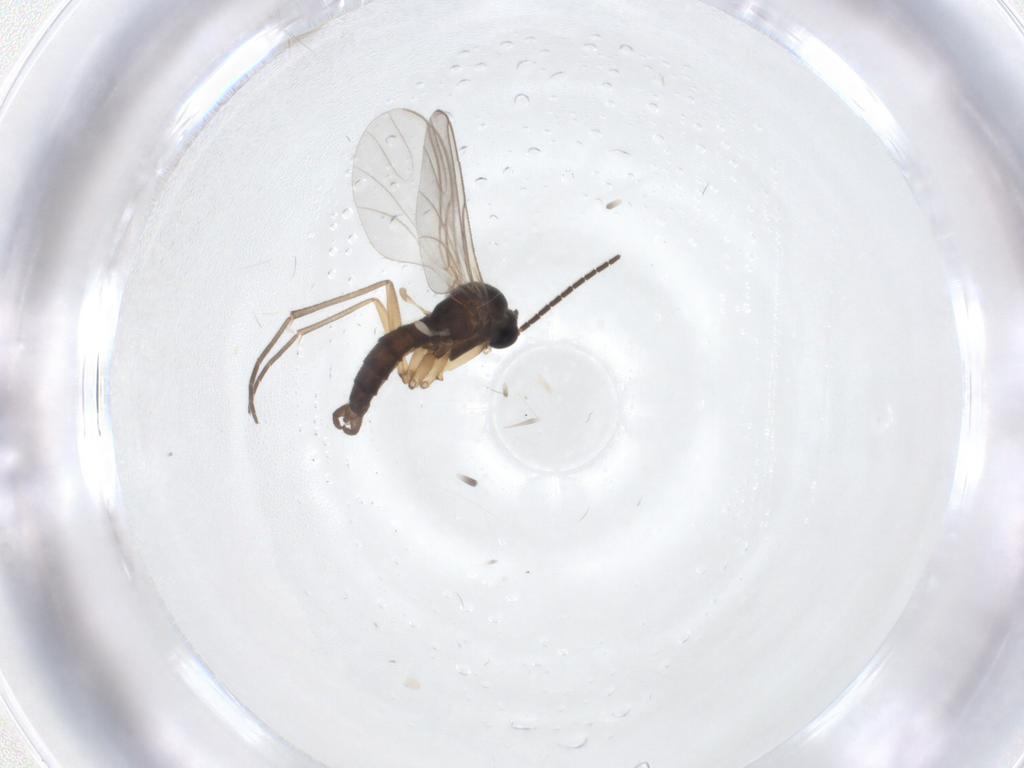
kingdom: Animalia
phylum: Arthropoda
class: Insecta
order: Diptera
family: Sciaridae
